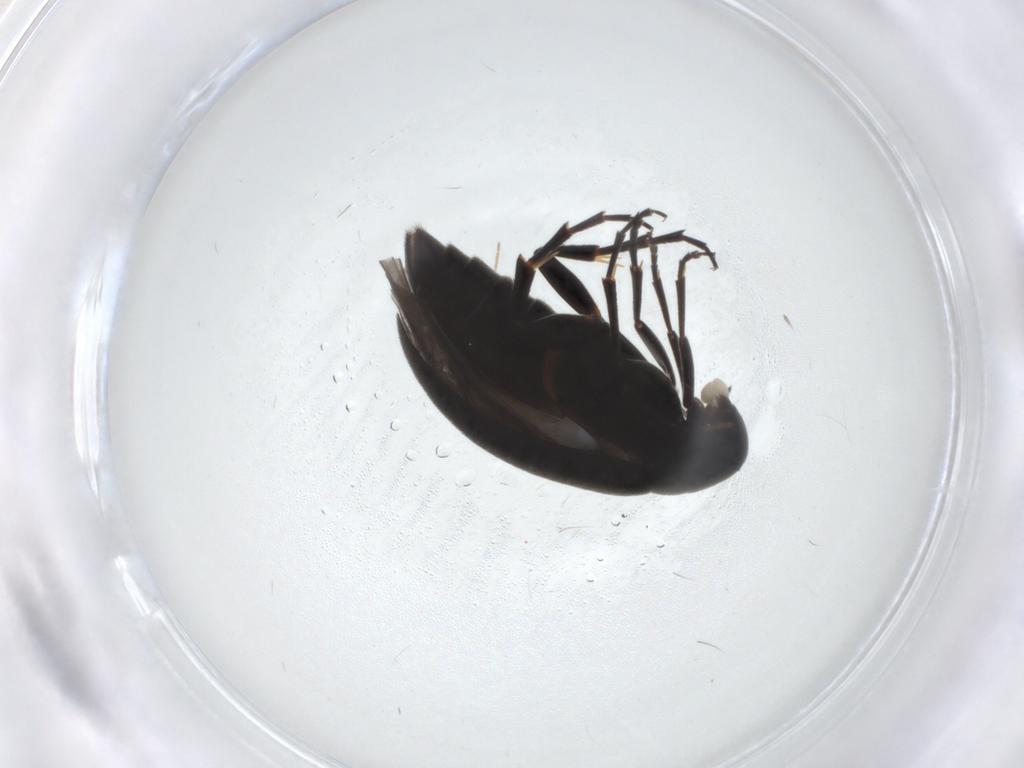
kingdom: Animalia
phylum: Arthropoda
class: Insecta
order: Coleoptera
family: Scraptiidae
